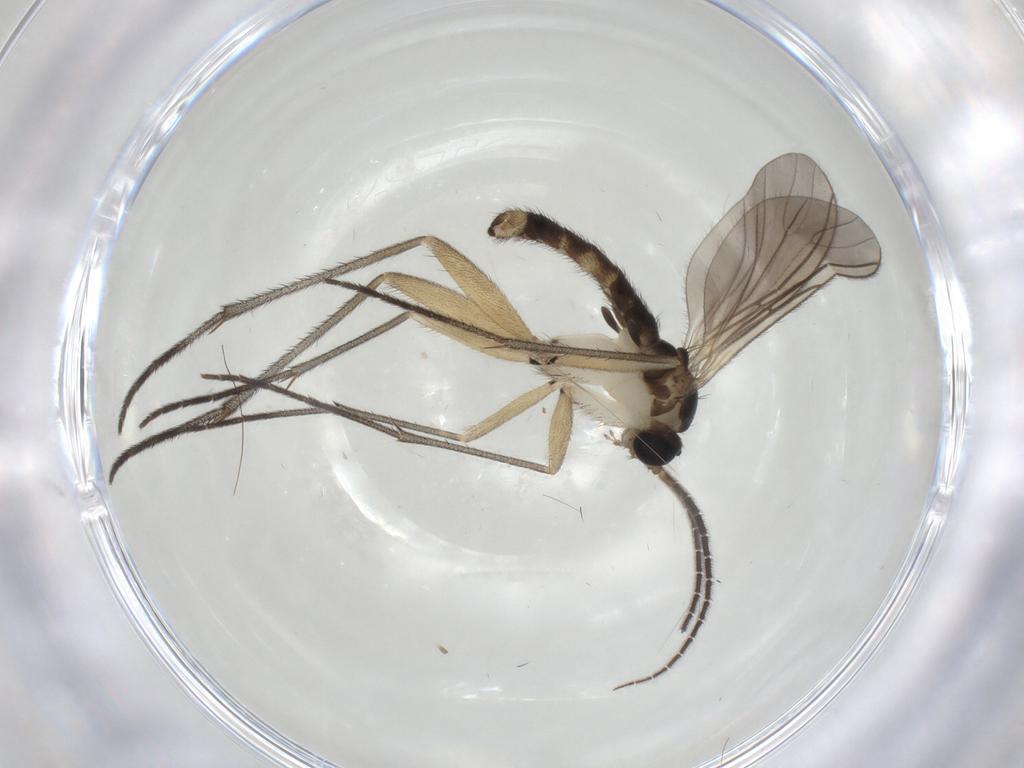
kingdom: Animalia
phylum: Arthropoda
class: Insecta
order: Diptera
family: Sciaridae
